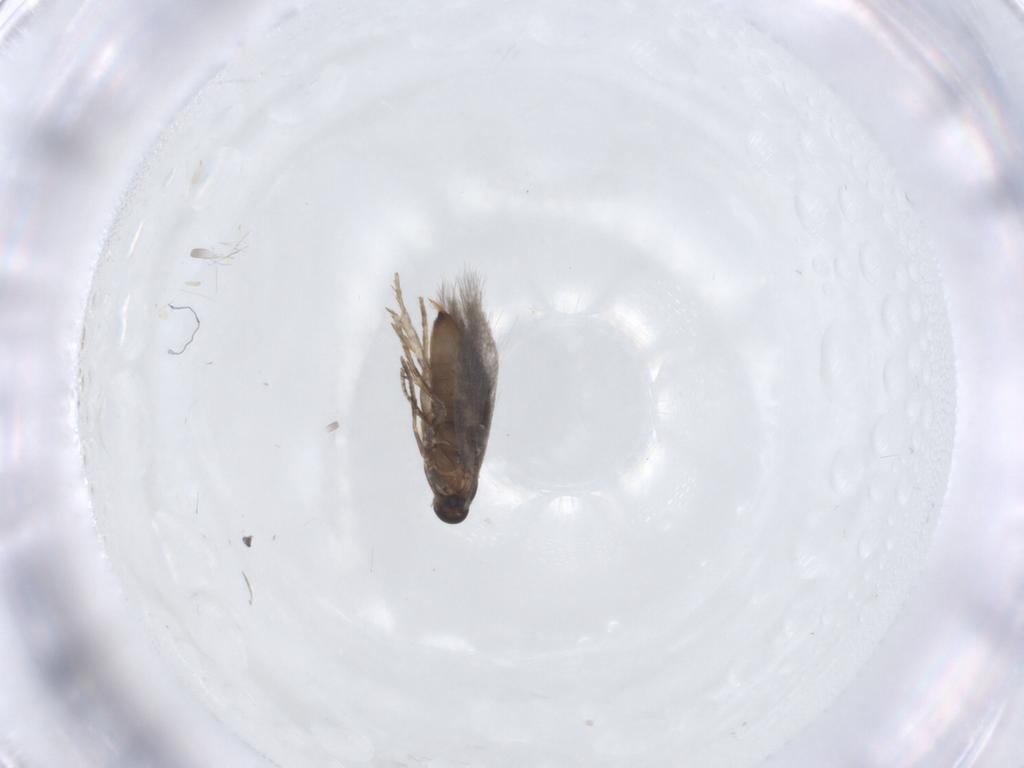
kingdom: Animalia
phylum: Arthropoda
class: Insecta
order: Lepidoptera
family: Heliozelidae
